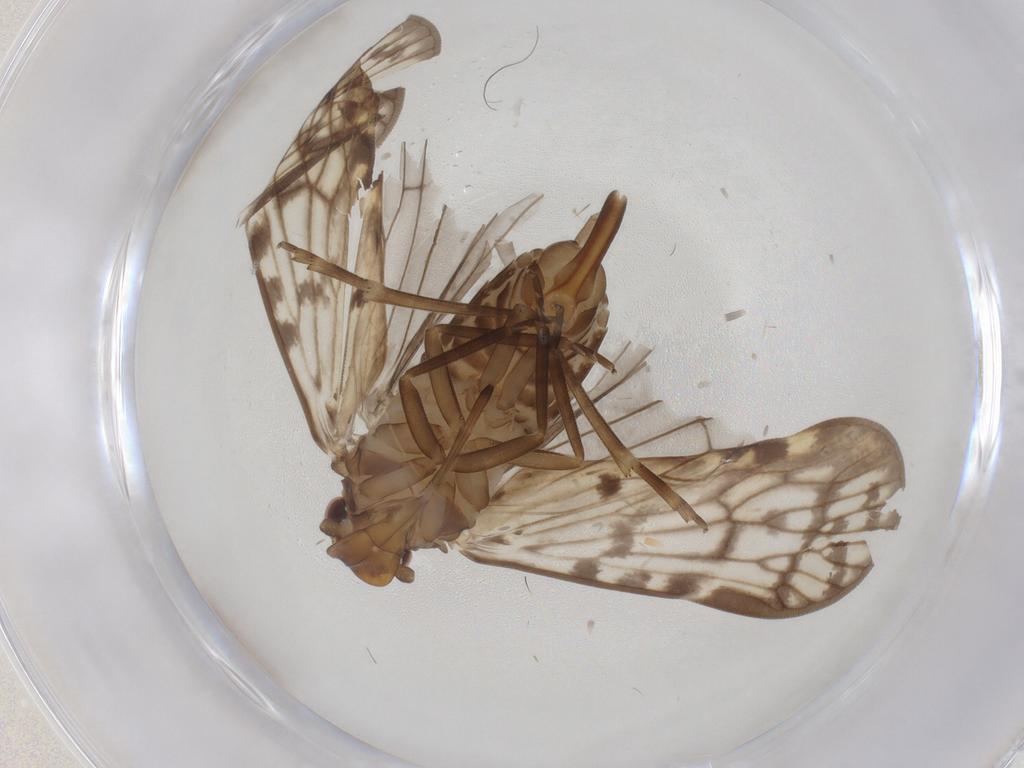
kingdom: Animalia
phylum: Arthropoda
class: Insecta
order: Hemiptera
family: Cixiidae
